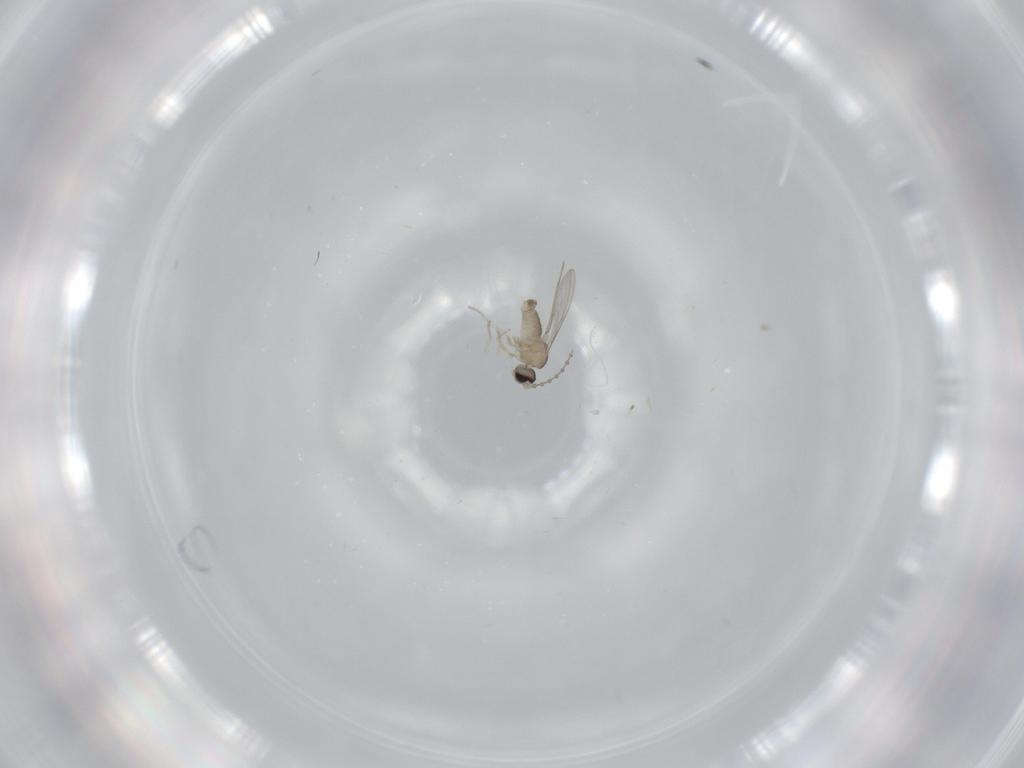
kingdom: Animalia
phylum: Arthropoda
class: Insecta
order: Diptera
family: Cecidomyiidae
